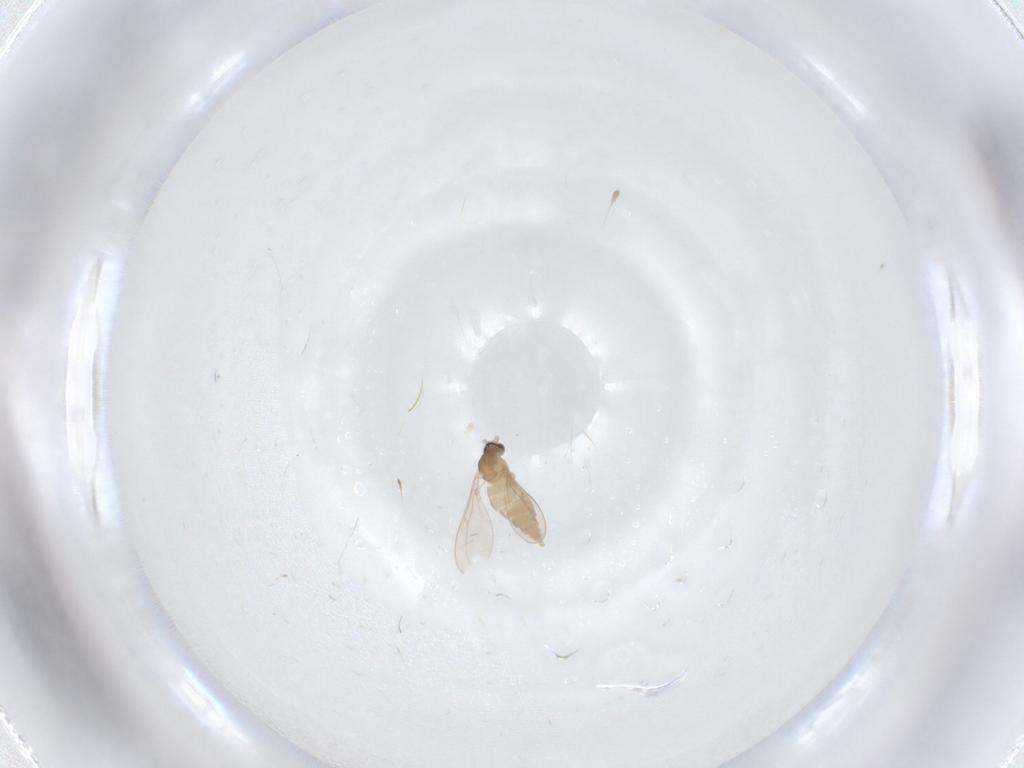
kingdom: Animalia
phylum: Arthropoda
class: Insecta
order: Diptera
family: Cecidomyiidae
